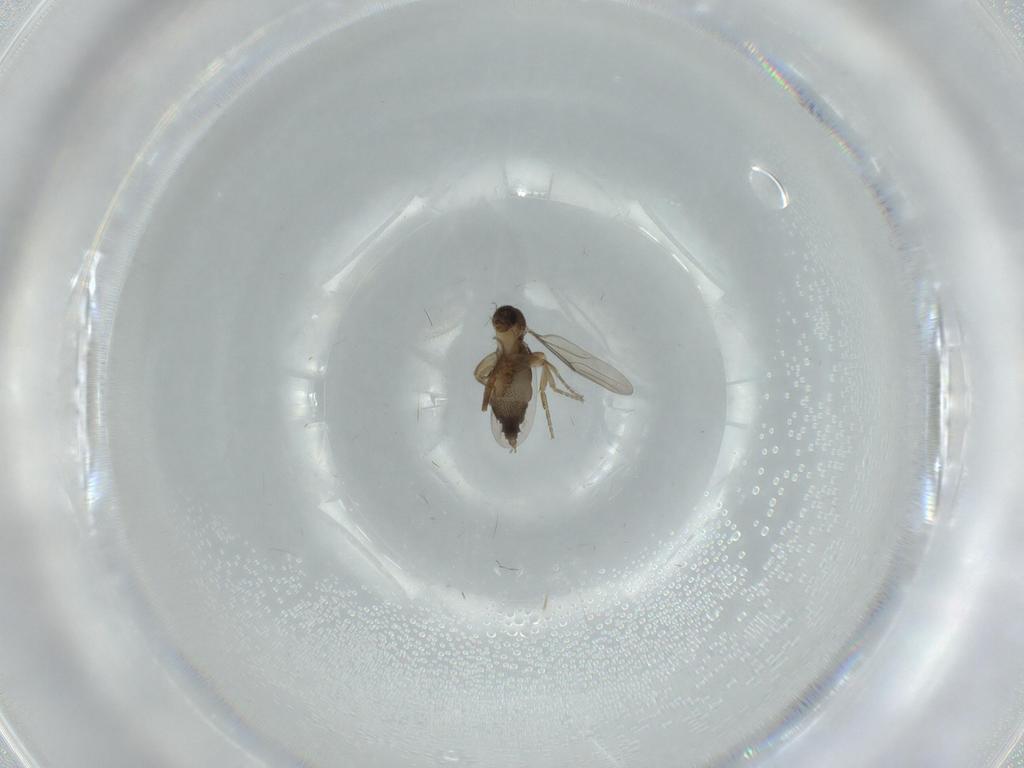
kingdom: Animalia
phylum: Arthropoda
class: Insecta
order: Diptera
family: Phoridae
